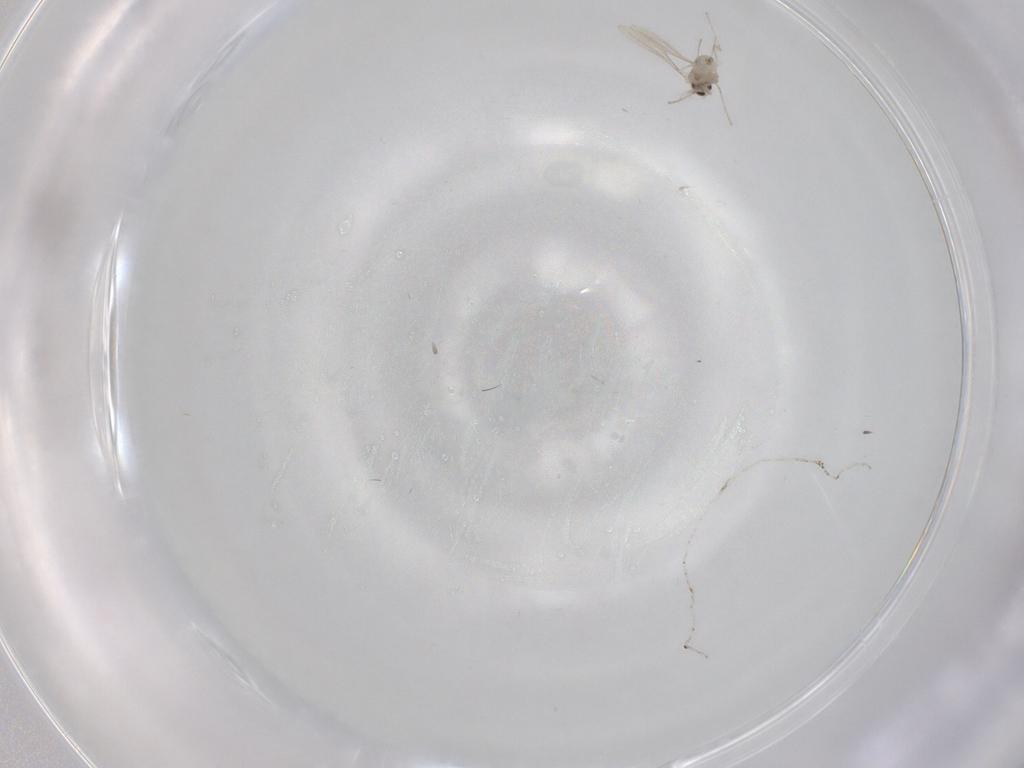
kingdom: Animalia
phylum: Arthropoda
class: Insecta
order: Diptera
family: Cecidomyiidae
